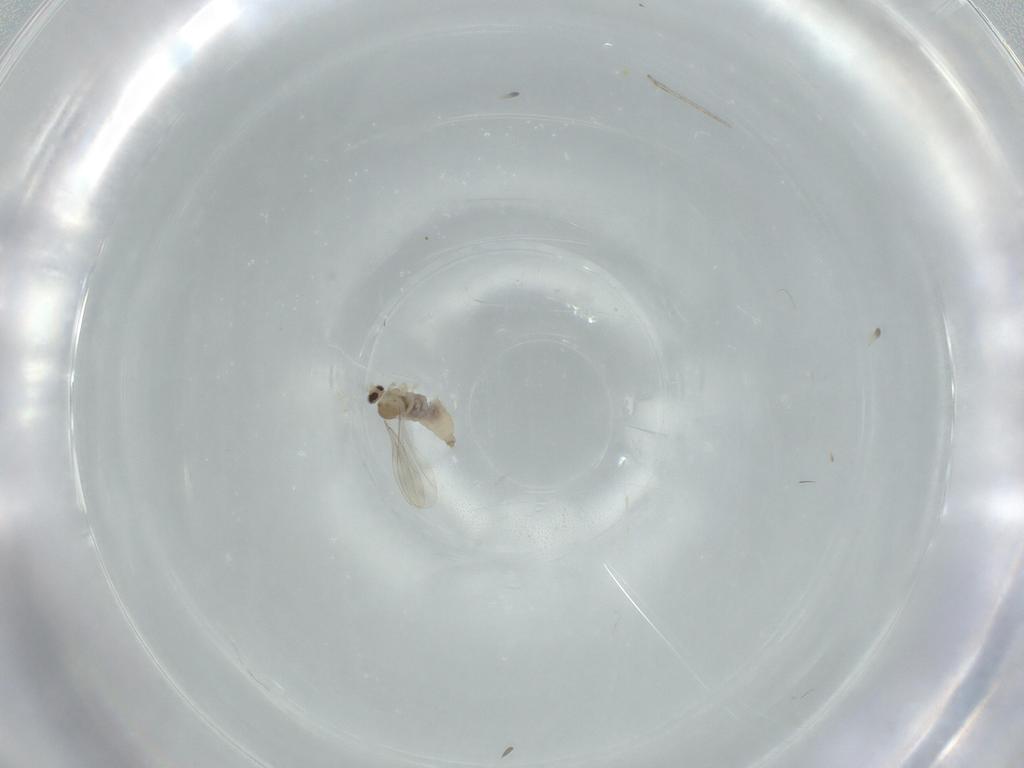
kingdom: Animalia
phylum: Arthropoda
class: Insecta
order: Diptera
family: Cecidomyiidae
